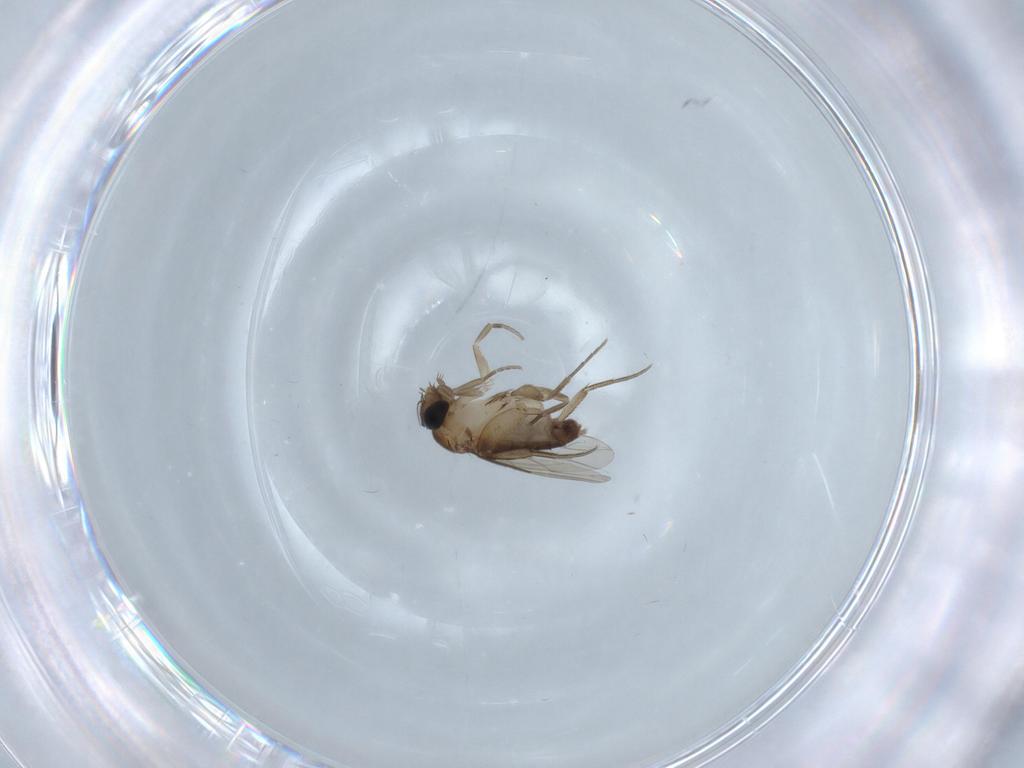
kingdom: Animalia
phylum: Arthropoda
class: Insecta
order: Diptera
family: Phoridae
